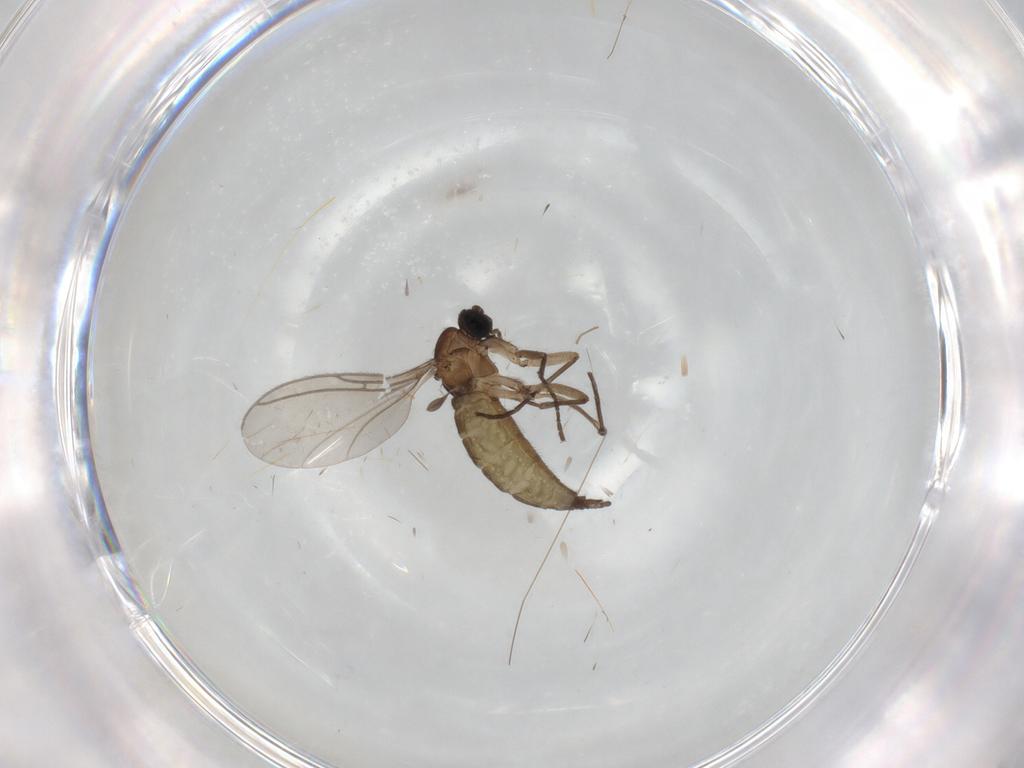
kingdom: Animalia
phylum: Arthropoda
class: Insecta
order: Diptera
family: Sciaridae
